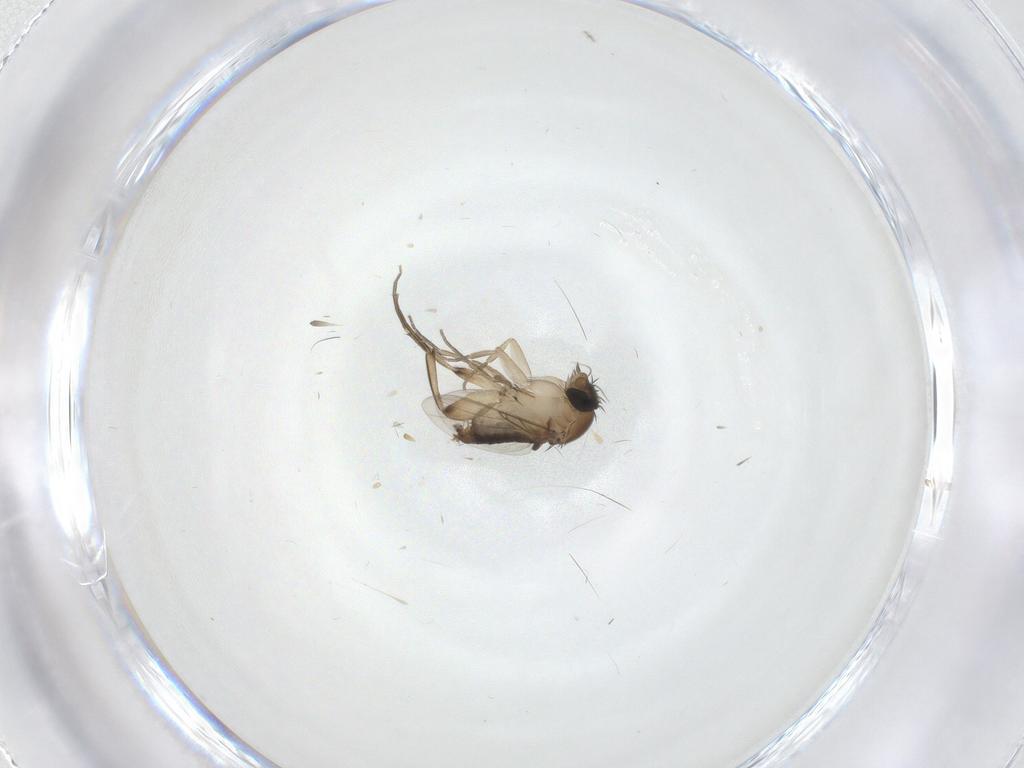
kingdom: Animalia
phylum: Arthropoda
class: Insecta
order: Diptera
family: Phoridae
